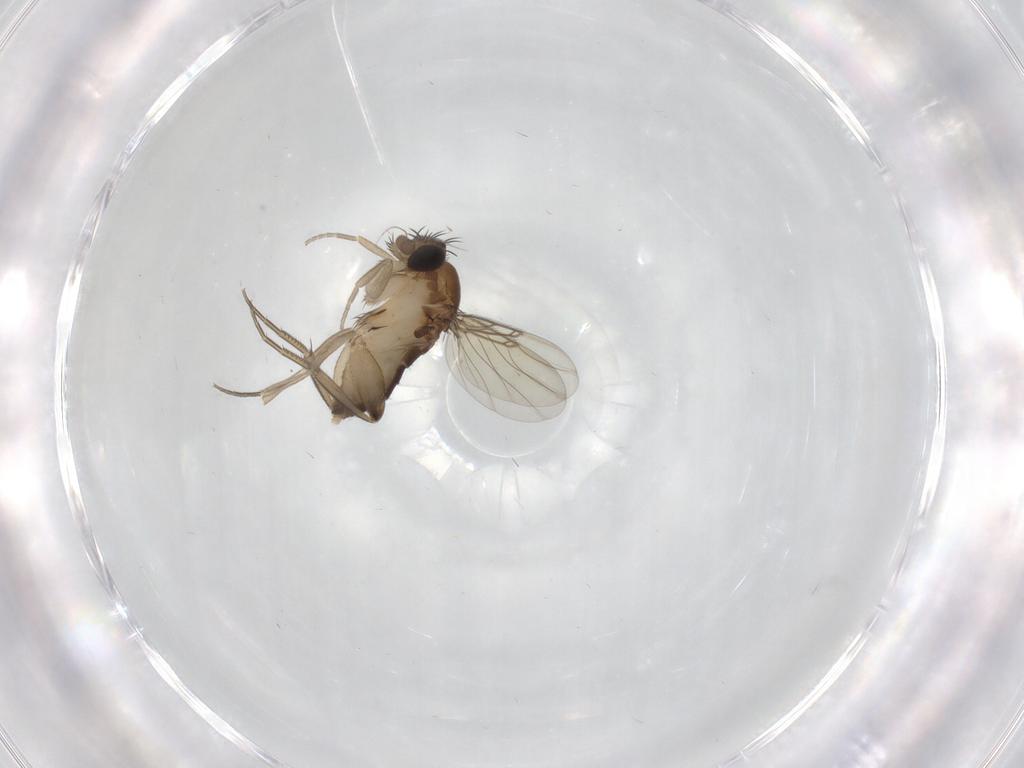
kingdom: Animalia
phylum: Arthropoda
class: Insecta
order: Diptera
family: Phoridae
